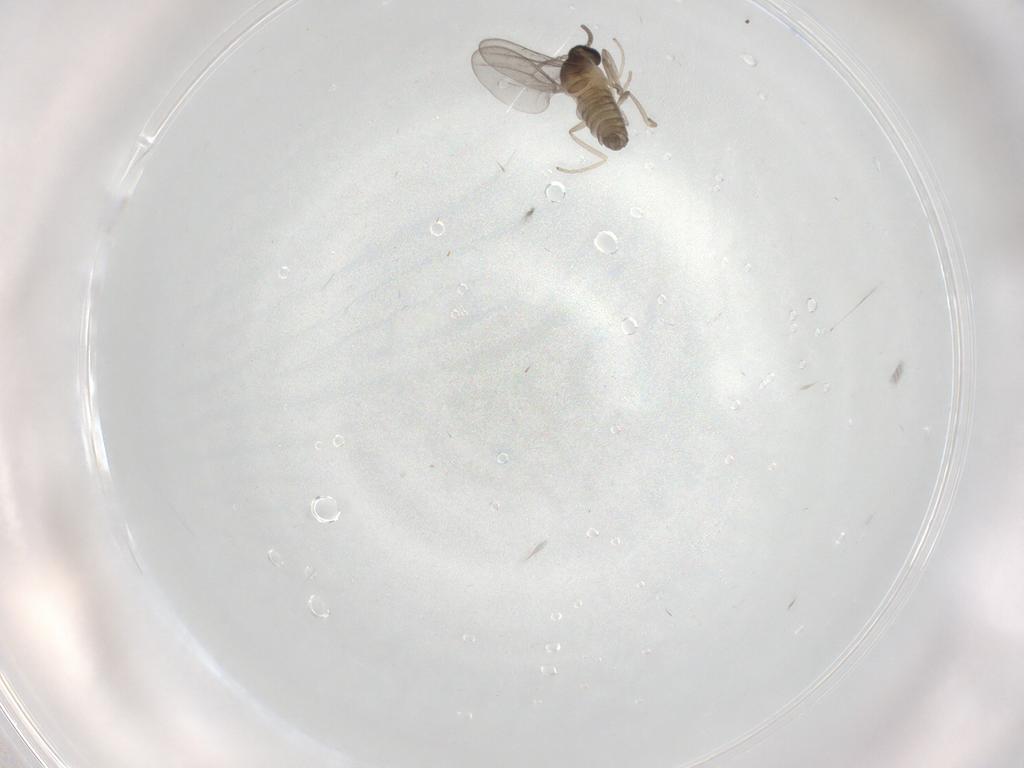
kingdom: Animalia
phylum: Arthropoda
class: Insecta
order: Diptera
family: Cecidomyiidae
